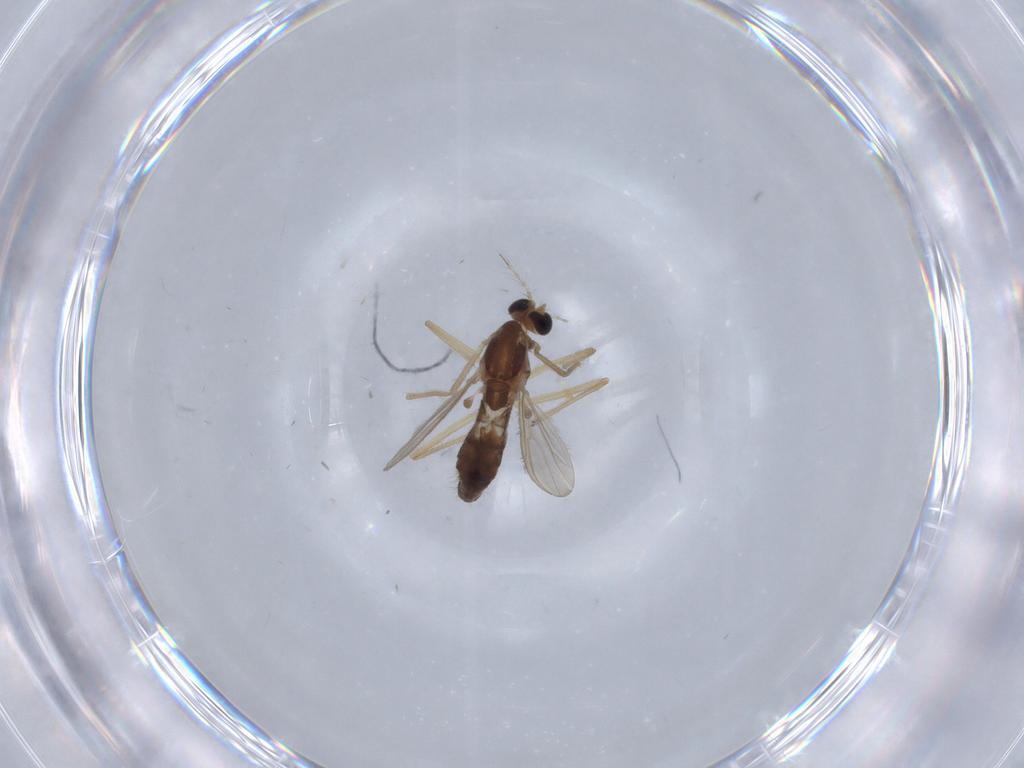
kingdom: Animalia
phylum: Arthropoda
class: Insecta
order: Diptera
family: Chironomidae
